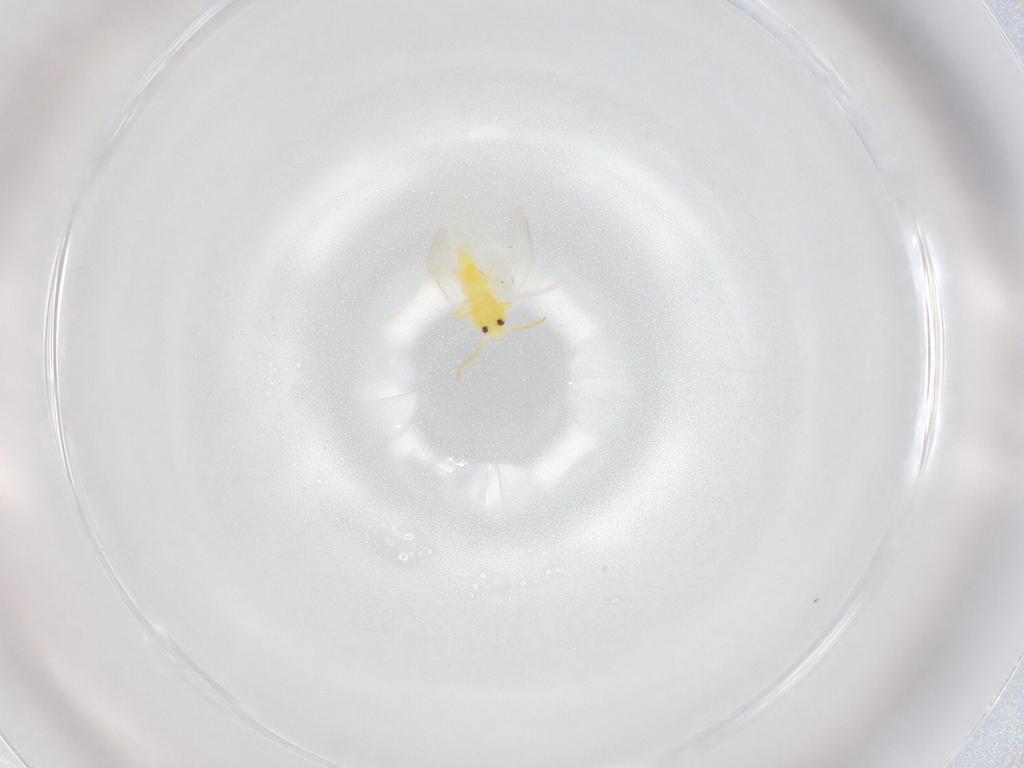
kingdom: Animalia
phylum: Arthropoda
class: Insecta
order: Hemiptera
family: Aleyrodidae
